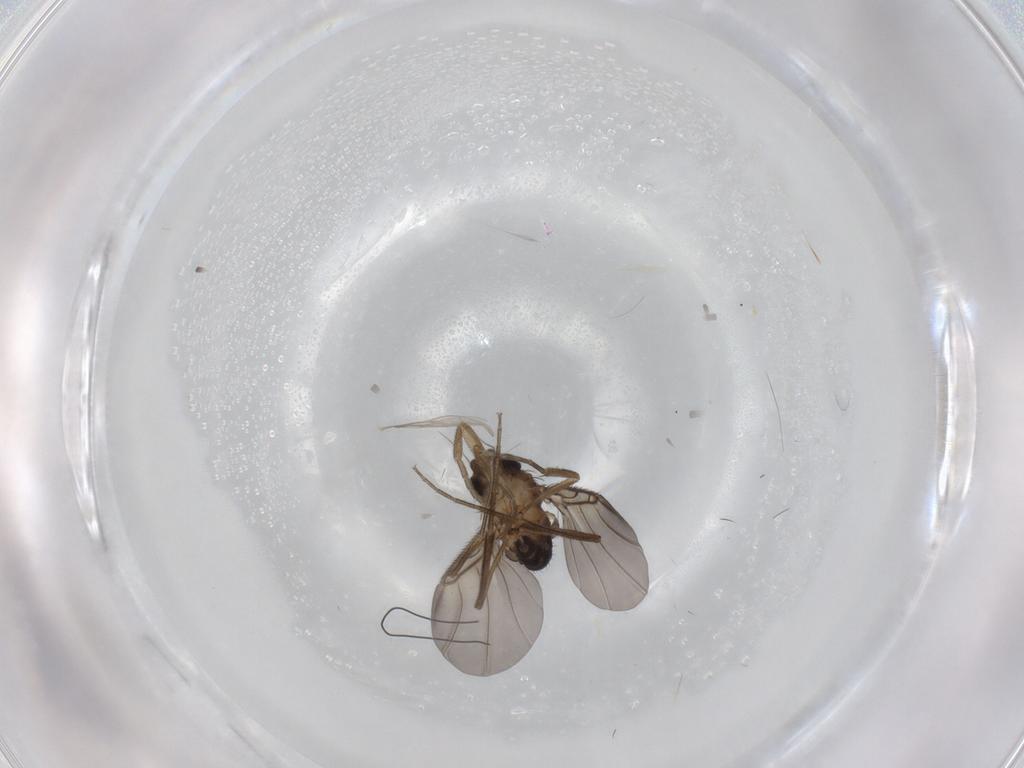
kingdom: Animalia
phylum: Arthropoda
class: Insecta
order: Diptera
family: Phoridae
